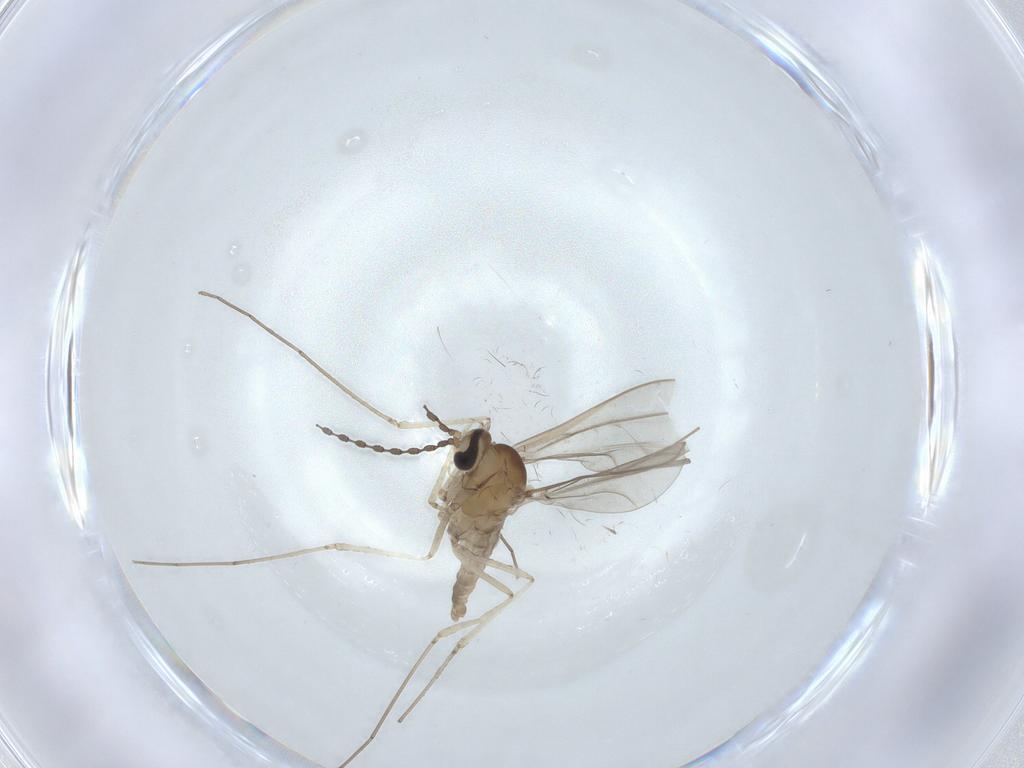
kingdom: Animalia
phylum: Arthropoda
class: Insecta
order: Diptera
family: Cecidomyiidae
